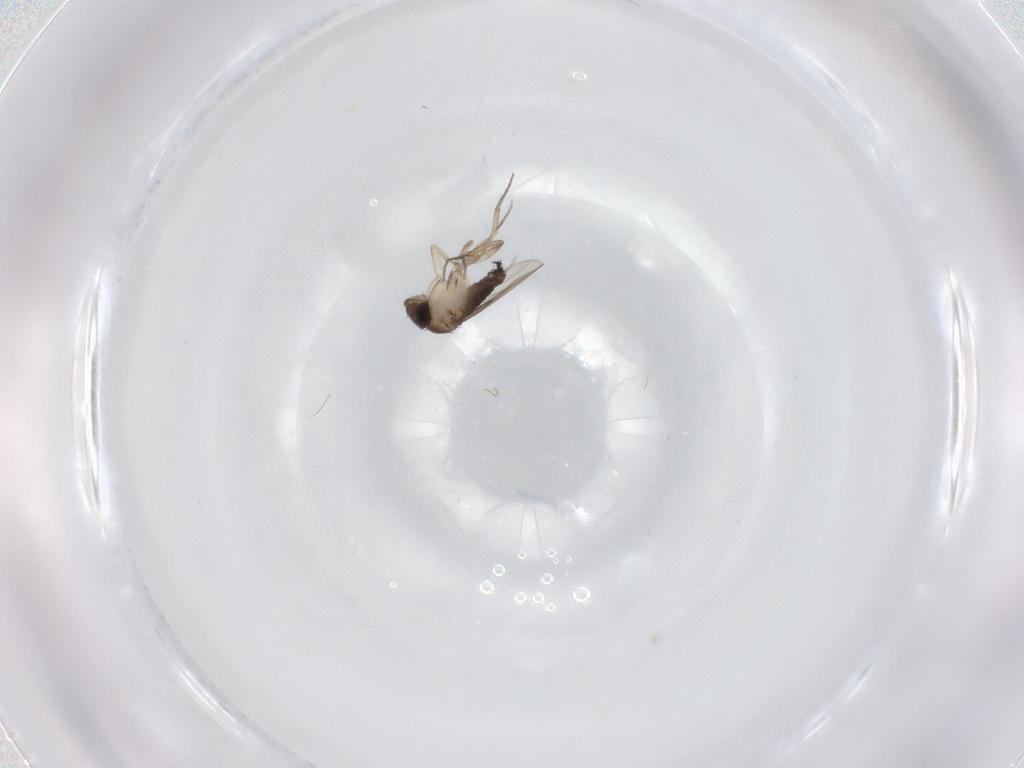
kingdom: Animalia
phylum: Arthropoda
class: Insecta
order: Diptera
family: Phoridae
